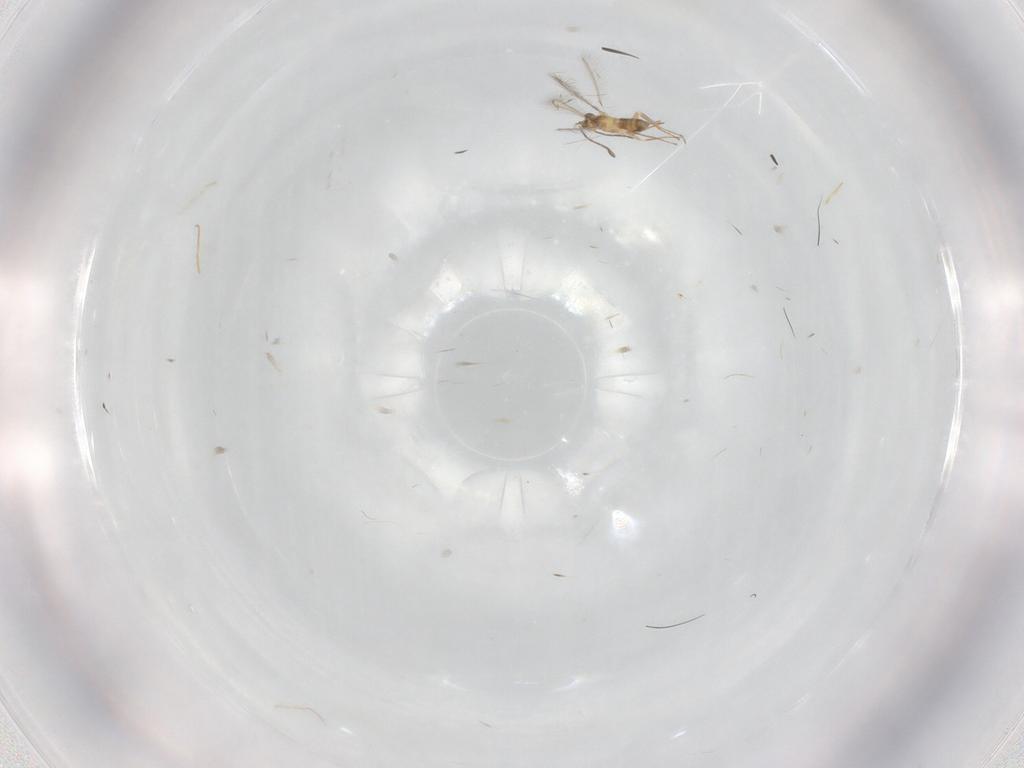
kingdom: Animalia
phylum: Arthropoda
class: Insecta
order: Hymenoptera
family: Mymaridae
